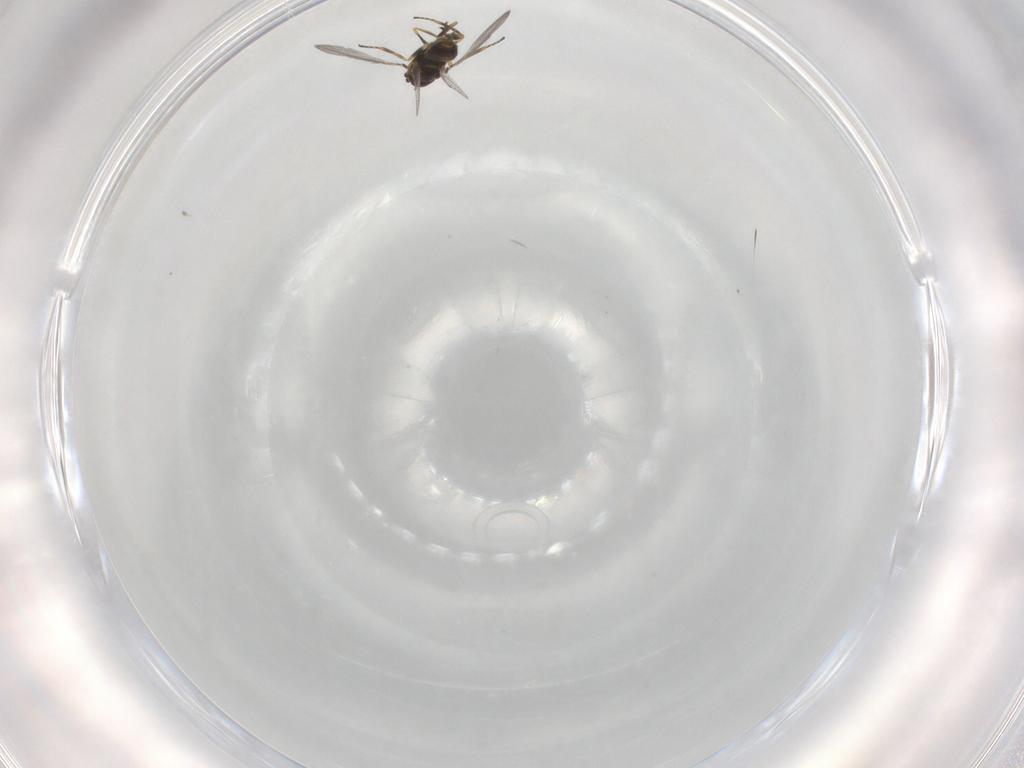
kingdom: Animalia
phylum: Arthropoda
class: Insecta
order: Hymenoptera
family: Eulophidae
